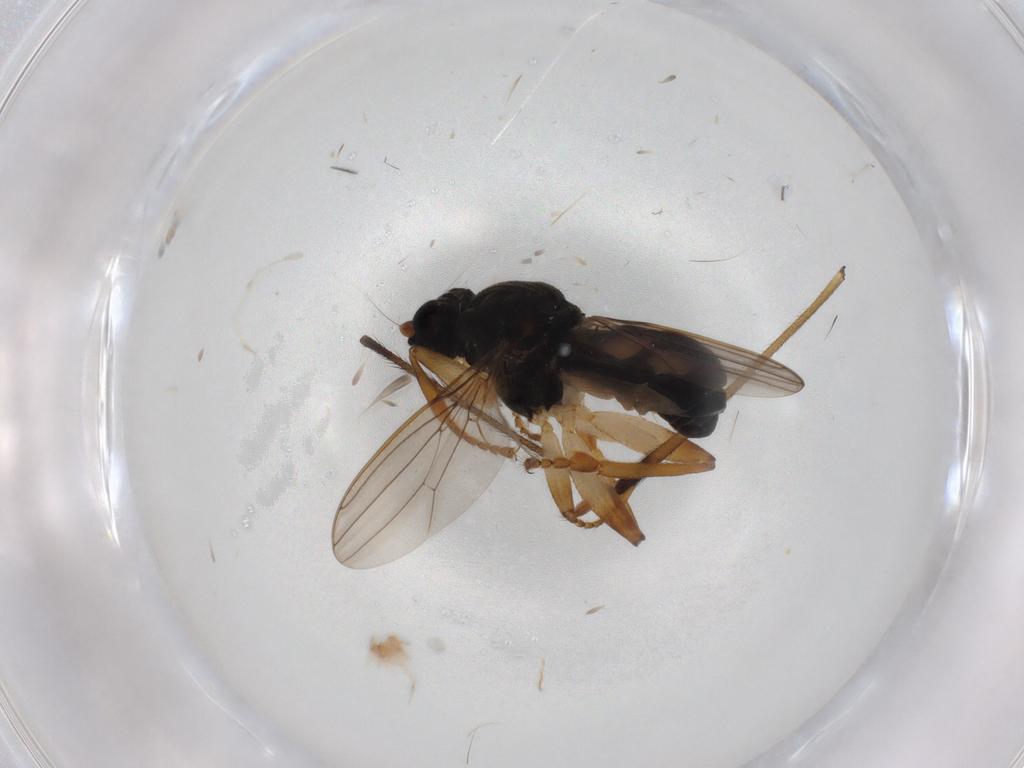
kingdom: Animalia
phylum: Arthropoda
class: Insecta
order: Diptera
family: Sphaeroceridae
